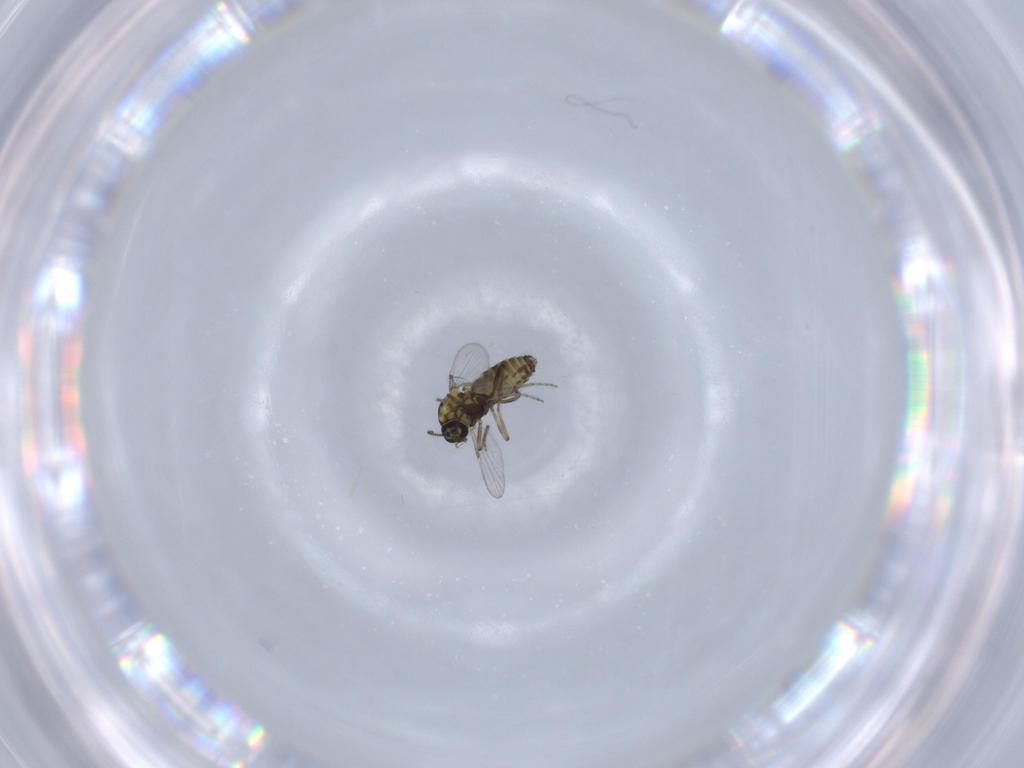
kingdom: Animalia
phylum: Arthropoda
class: Insecta
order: Diptera
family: Ceratopogonidae
